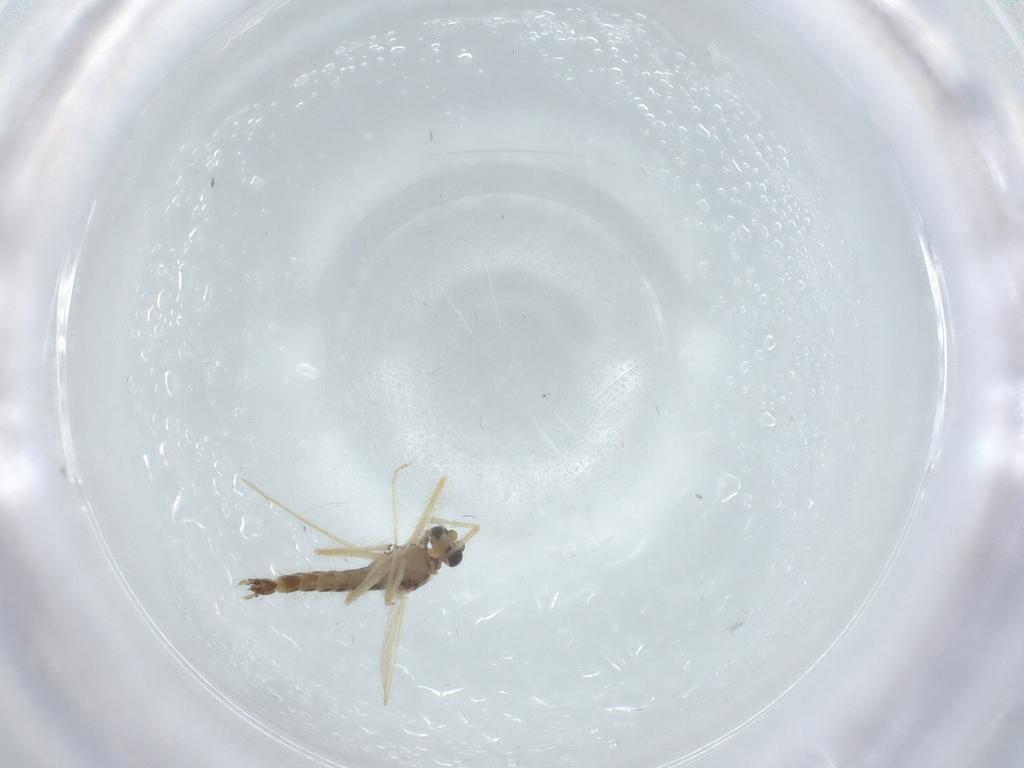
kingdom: Animalia
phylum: Arthropoda
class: Insecta
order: Diptera
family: Chironomidae
